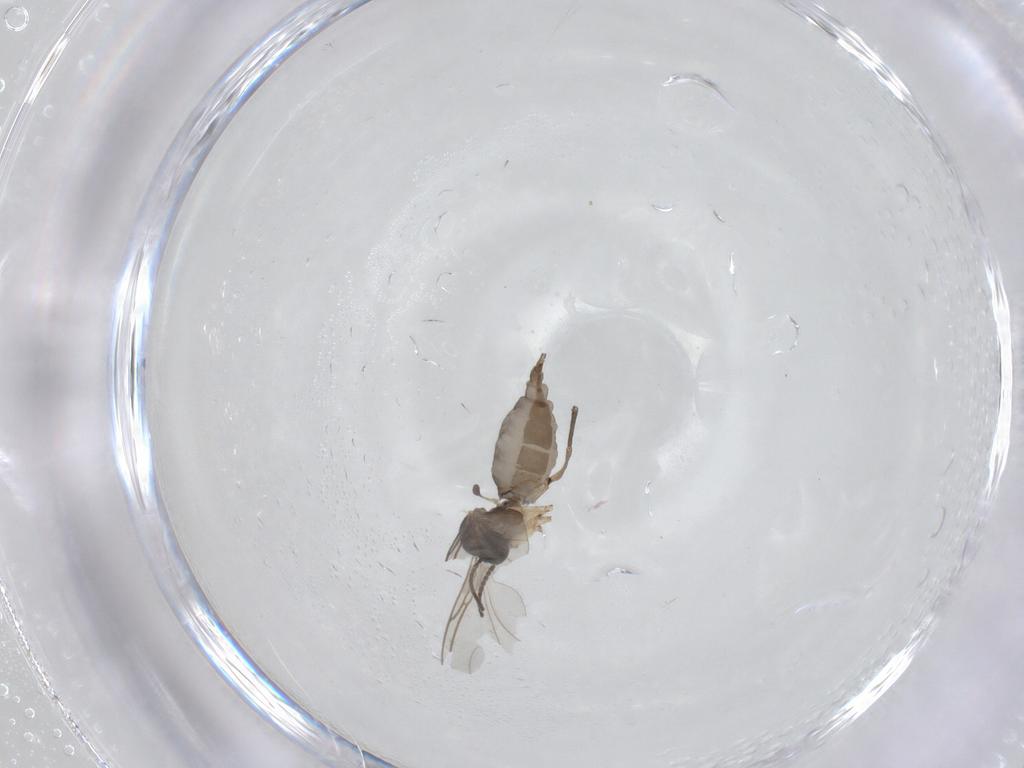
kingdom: Animalia
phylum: Arthropoda
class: Insecta
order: Diptera
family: Sciaridae
